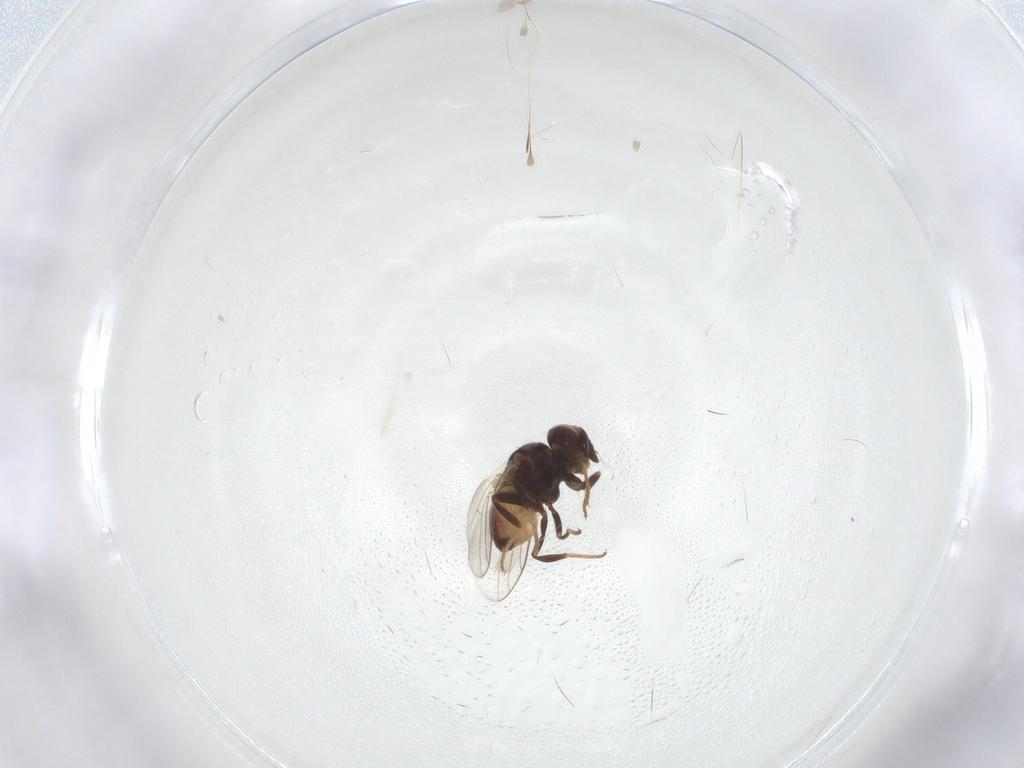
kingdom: Animalia
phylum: Arthropoda
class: Insecta
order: Diptera
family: Chloropidae
